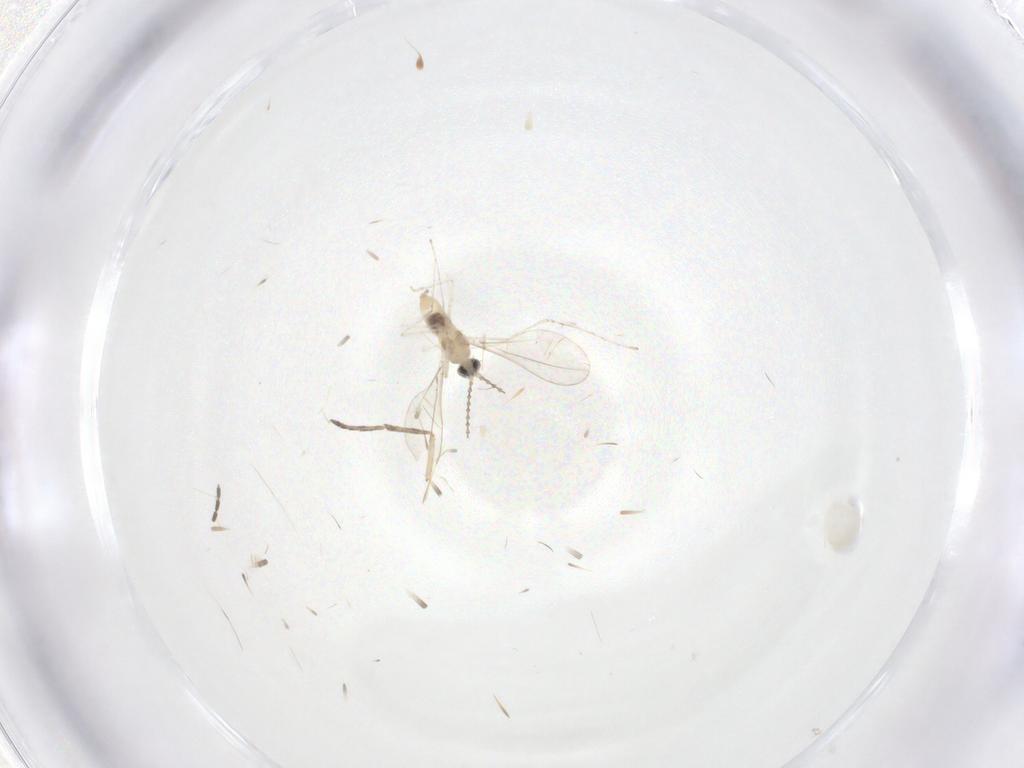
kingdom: Animalia
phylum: Arthropoda
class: Insecta
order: Diptera
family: Cecidomyiidae
